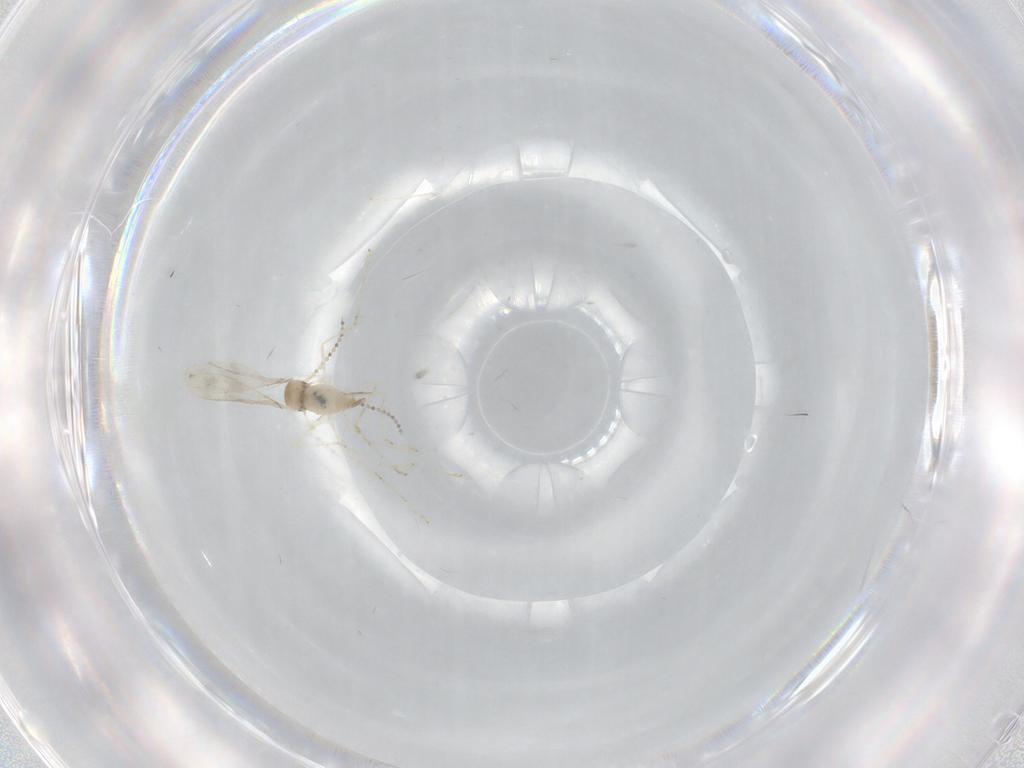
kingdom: Animalia
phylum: Arthropoda
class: Insecta
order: Diptera
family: Cecidomyiidae
